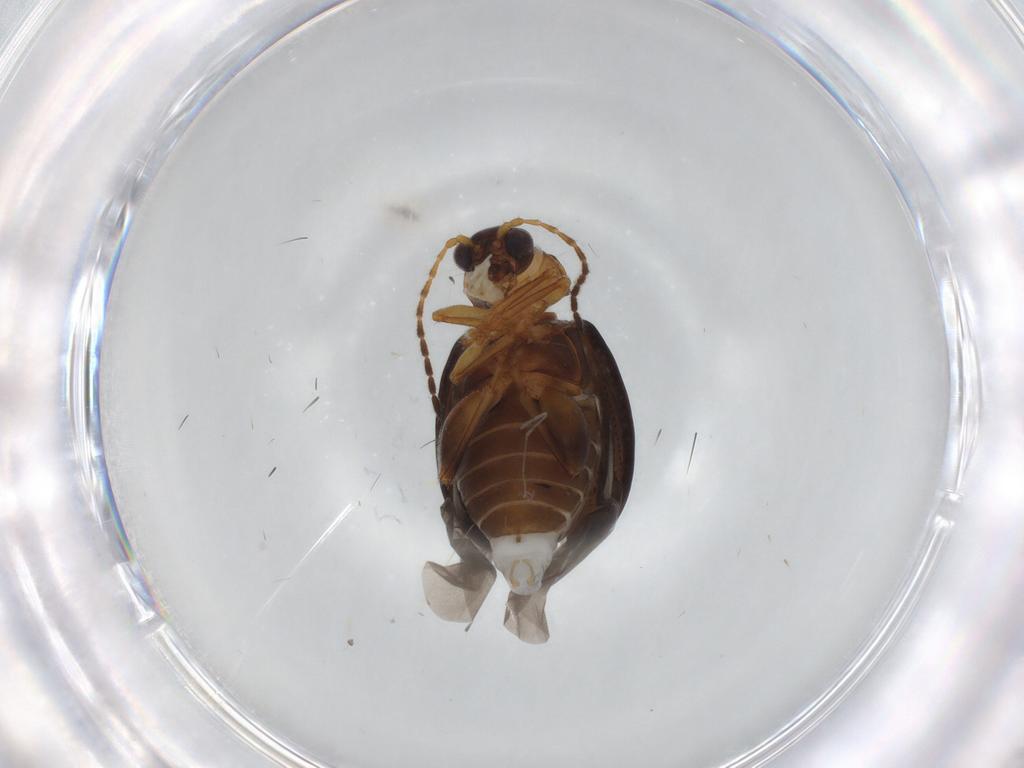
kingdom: Animalia
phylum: Arthropoda
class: Insecta
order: Coleoptera
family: Chrysomelidae
